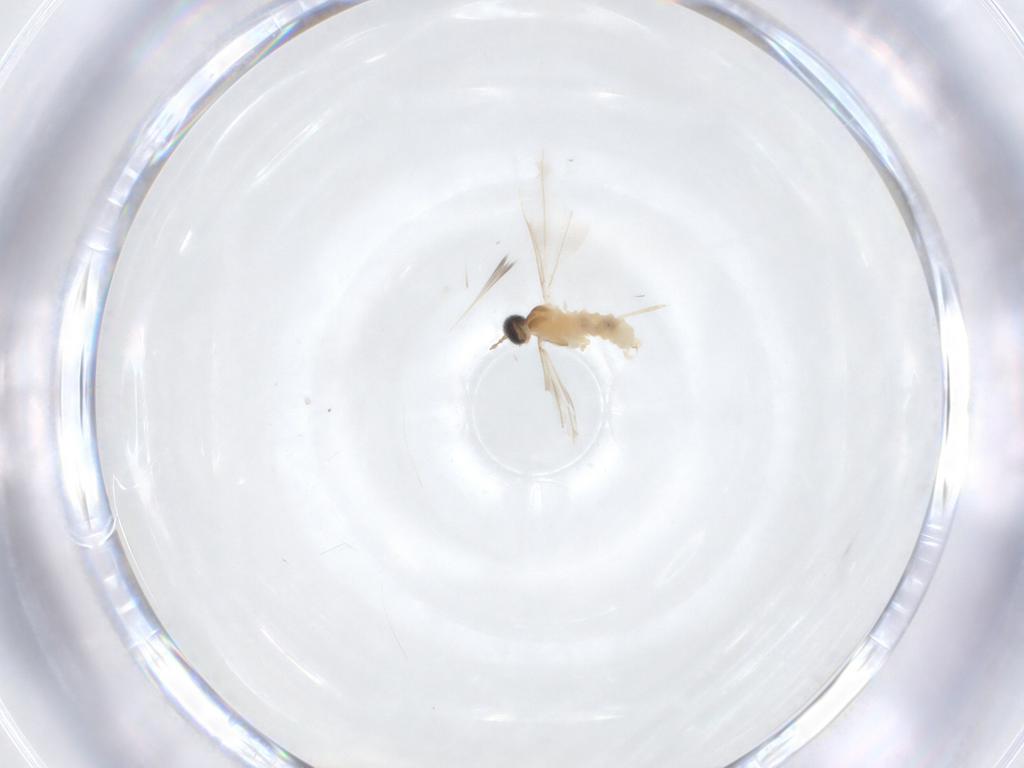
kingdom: Animalia
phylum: Arthropoda
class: Insecta
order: Diptera
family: Cecidomyiidae
